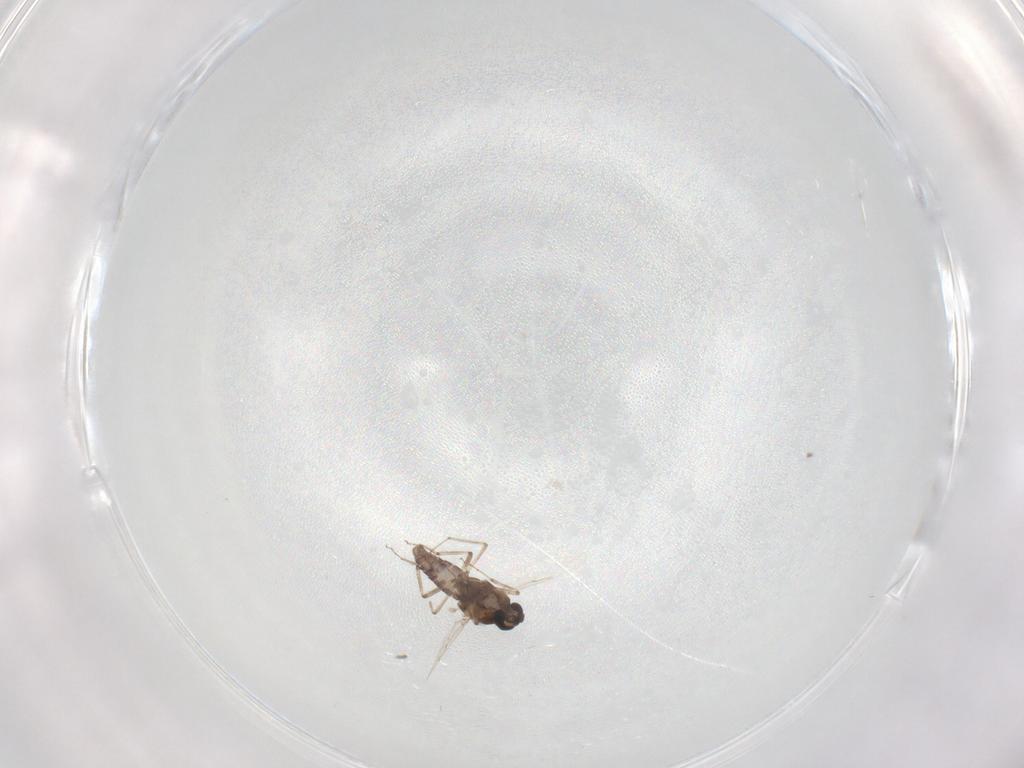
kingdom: Animalia
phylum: Arthropoda
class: Insecta
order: Diptera
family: Ceratopogonidae
